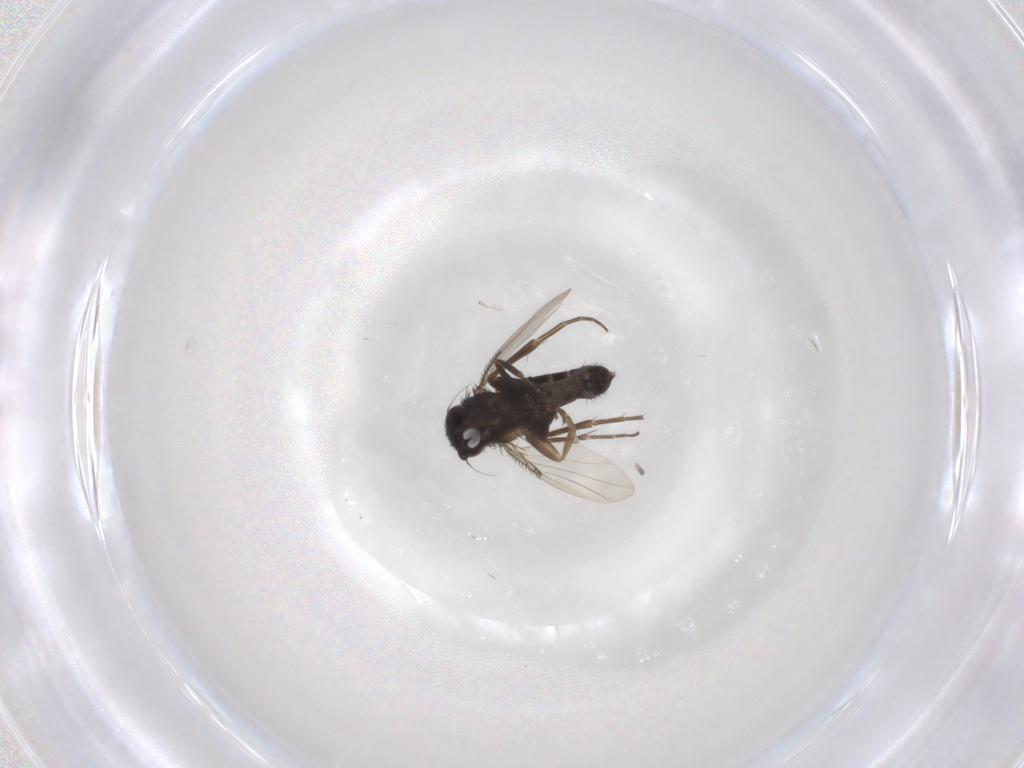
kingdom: Animalia
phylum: Arthropoda
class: Insecta
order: Diptera
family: Phoridae
